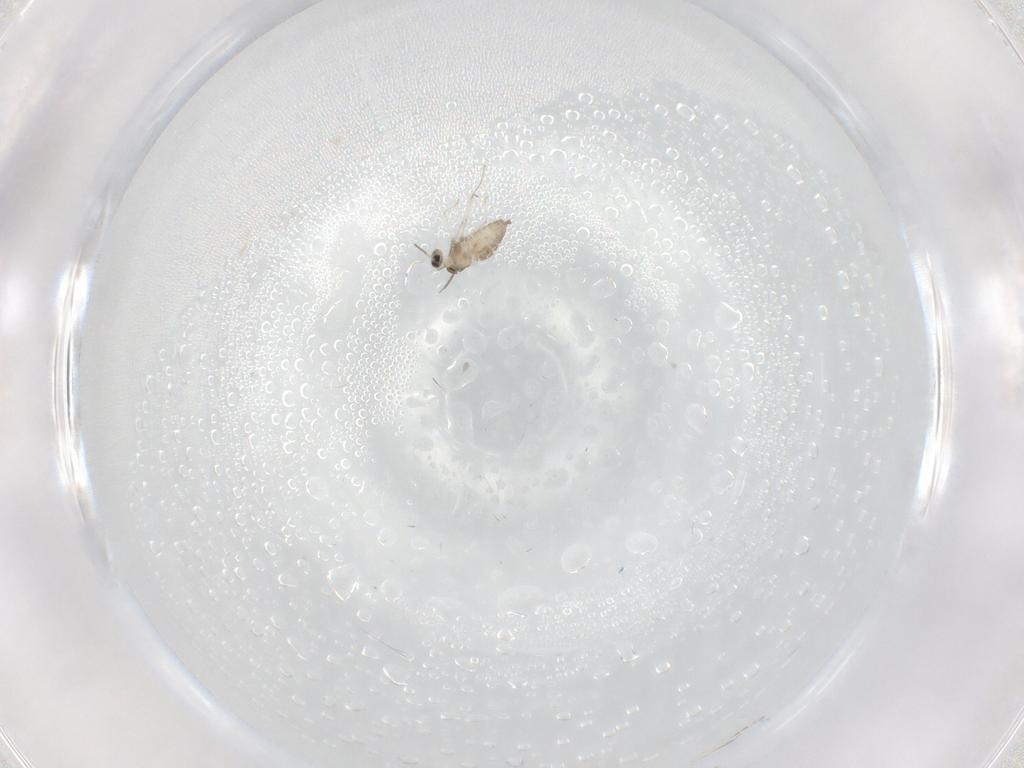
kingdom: Animalia
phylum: Arthropoda
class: Insecta
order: Diptera
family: Cecidomyiidae
